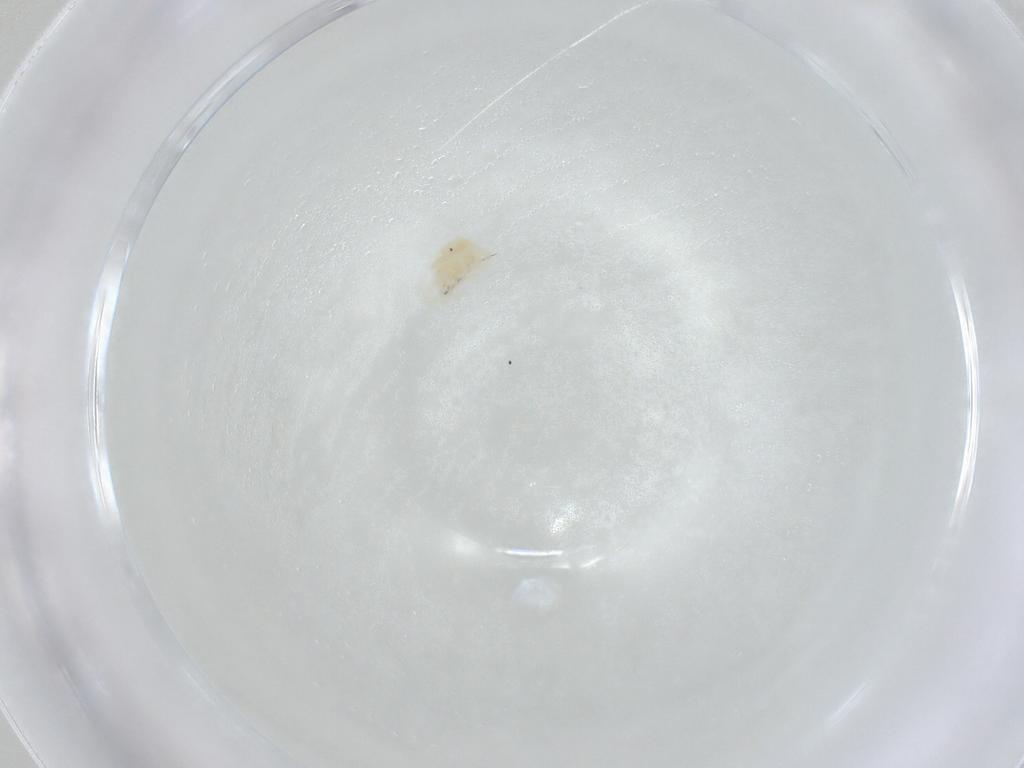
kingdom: Animalia
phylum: Arthropoda
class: Arachnida
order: Trombidiformes
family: Anystidae
